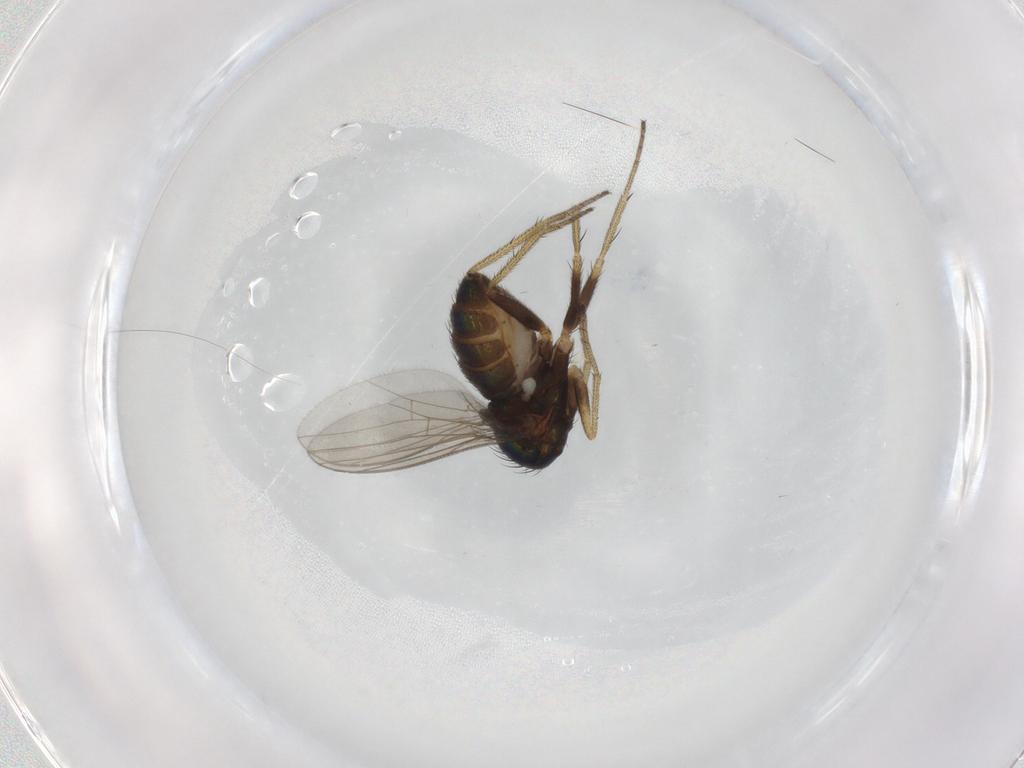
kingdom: Animalia
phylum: Arthropoda
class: Insecta
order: Diptera
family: Dolichopodidae
